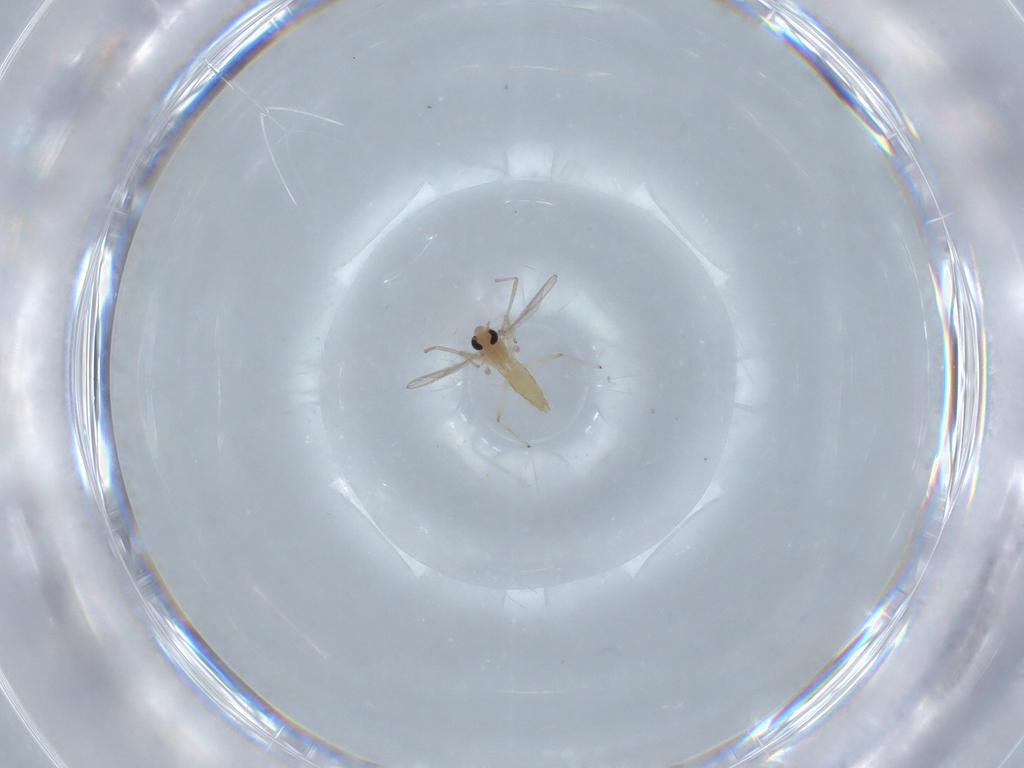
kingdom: Animalia
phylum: Arthropoda
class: Insecta
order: Diptera
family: Chironomidae
